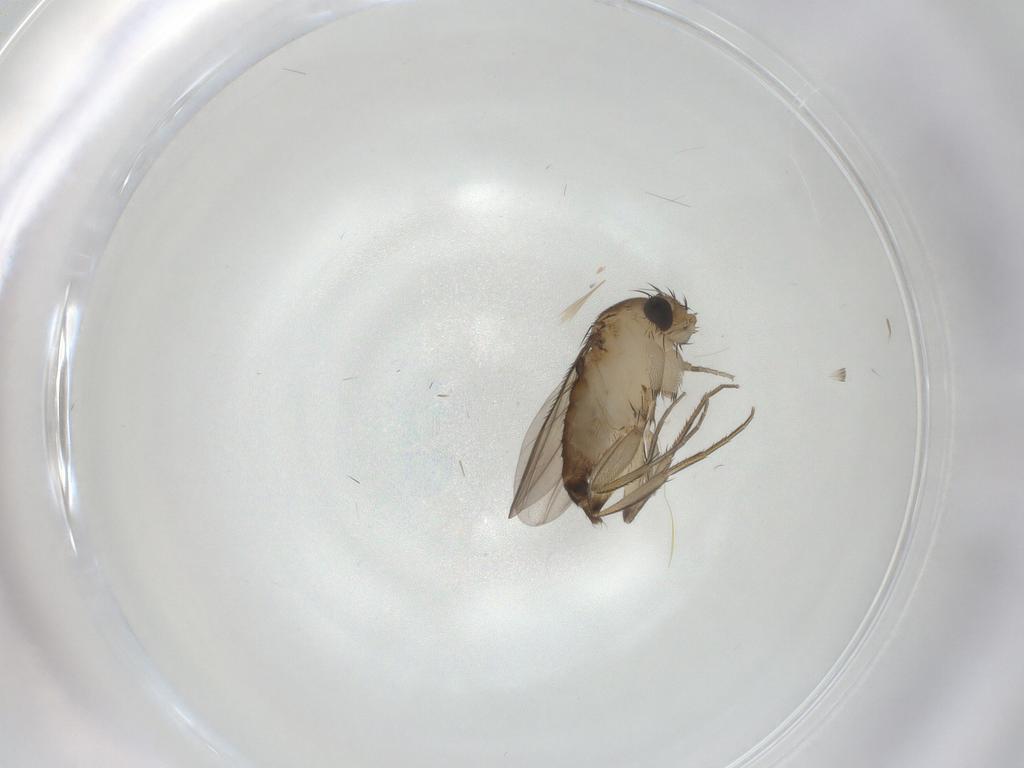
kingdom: Animalia
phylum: Arthropoda
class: Insecta
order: Diptera
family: Phoridae
